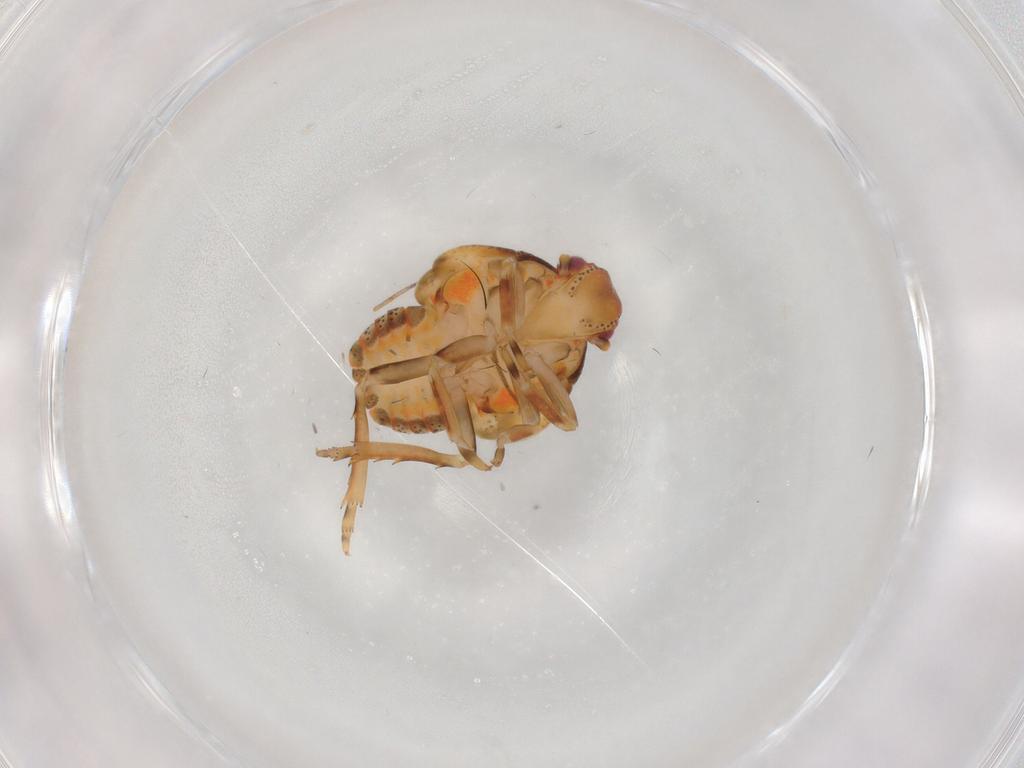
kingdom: Animalia
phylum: Arthropoda
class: Insecta
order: Hemiptera
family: Flatidae
